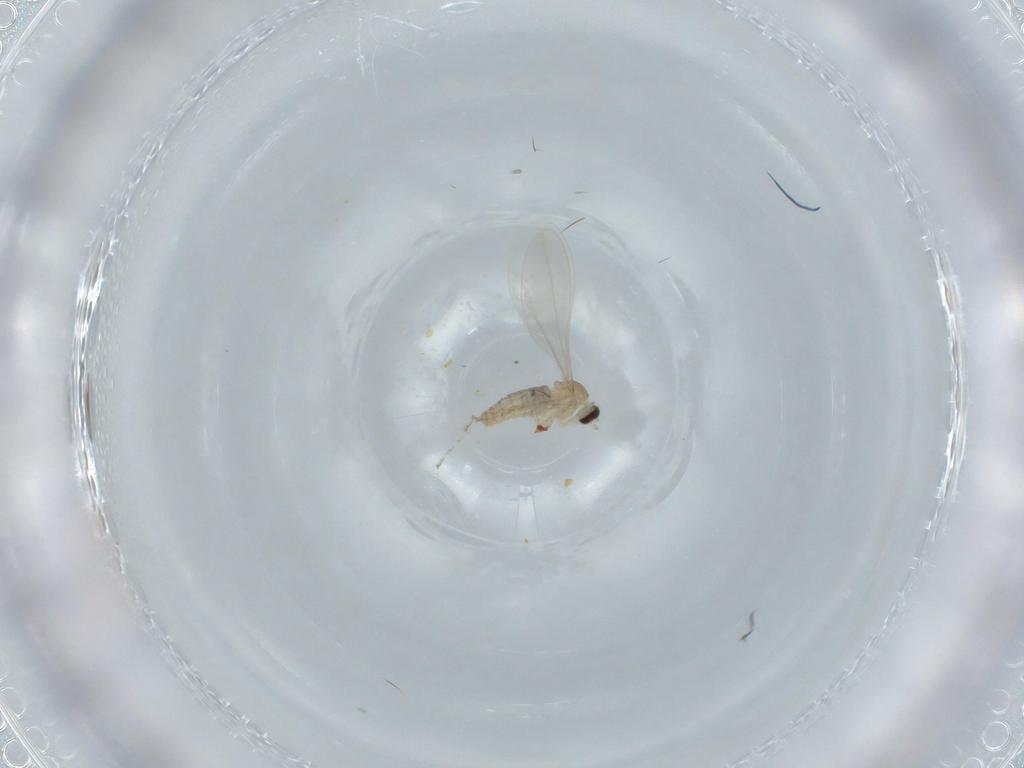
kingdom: Animalia
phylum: Arthropoda
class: Insecta
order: Diptera
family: Cecidomyiidae
